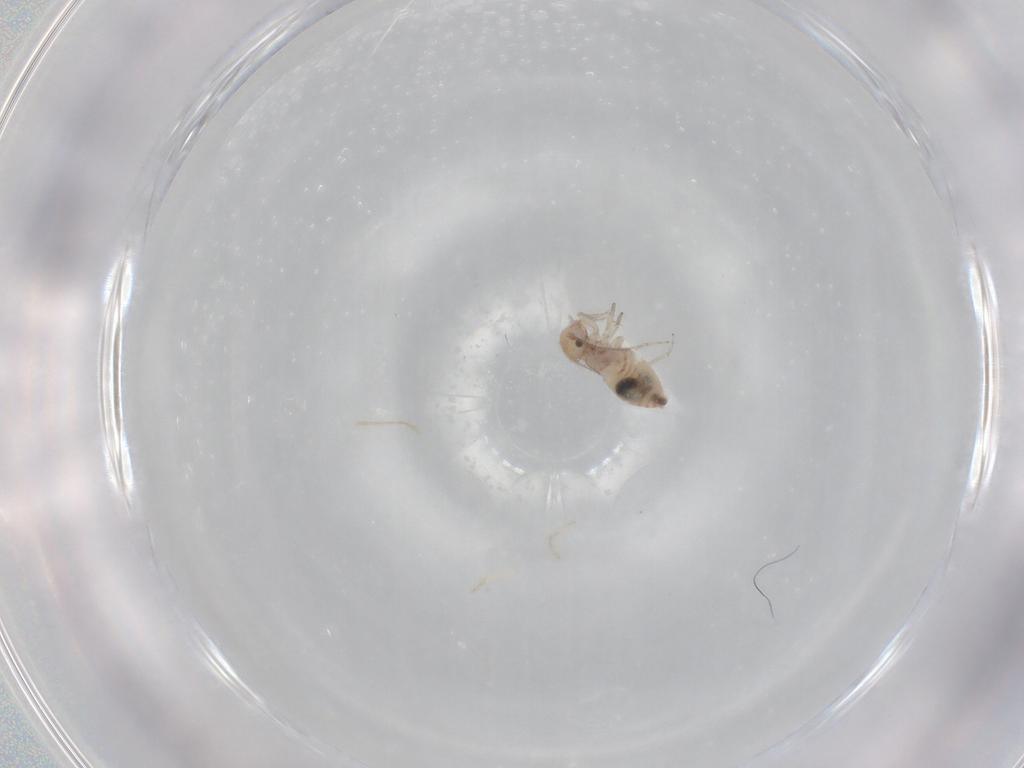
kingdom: Animalia
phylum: Arthropoda
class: Insecta
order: Psocodea
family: Ectopsocidae
